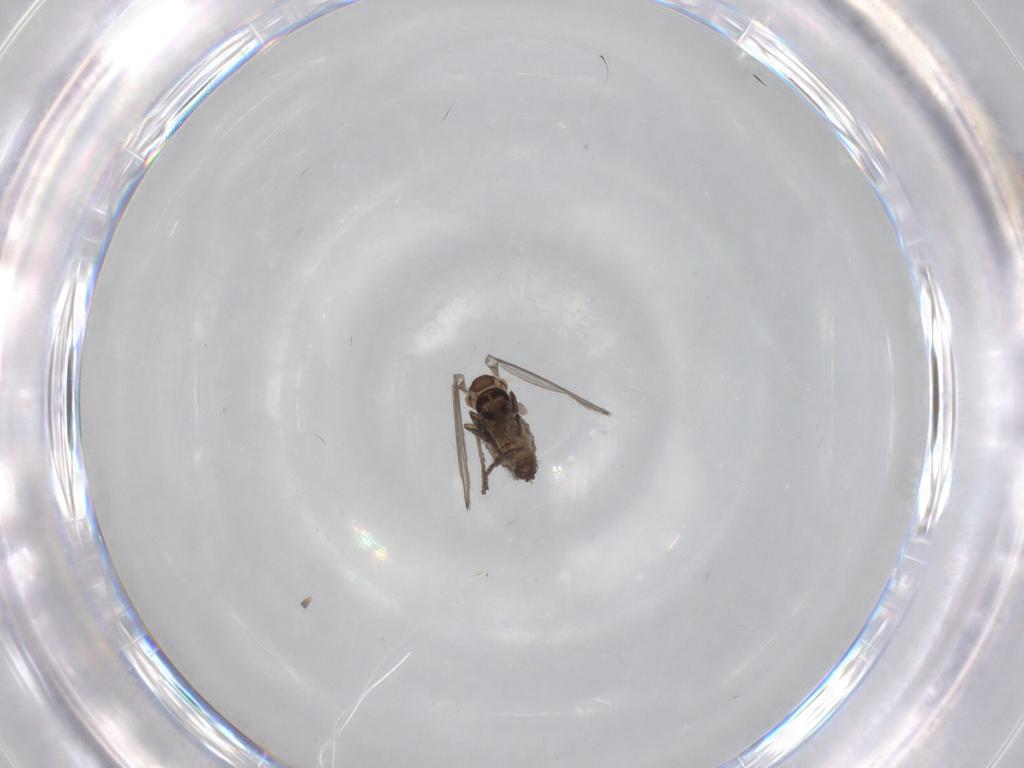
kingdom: Animalia
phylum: Arthropoda
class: Insecta
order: Diptera
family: Psychodidae
